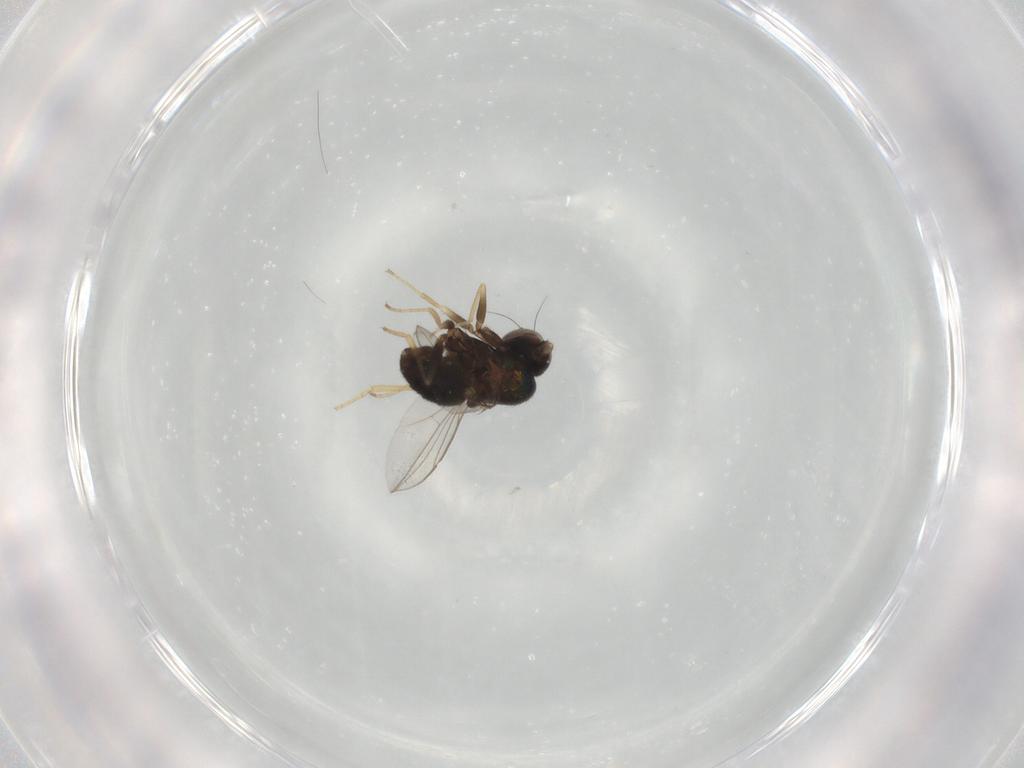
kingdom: Animalia
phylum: Arthropoda
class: Insecta
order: Diptera
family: Dolichopodidae
